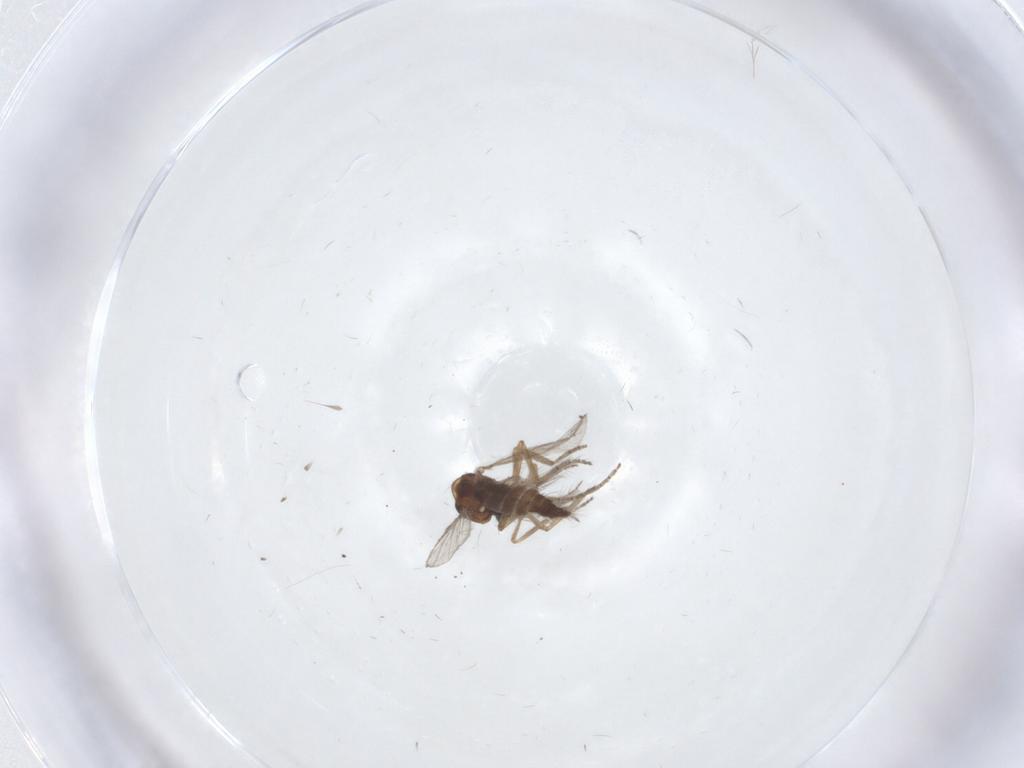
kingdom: Animalia
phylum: Arthropoda
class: Insecta
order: Diptera
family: Ceratopogonidae
